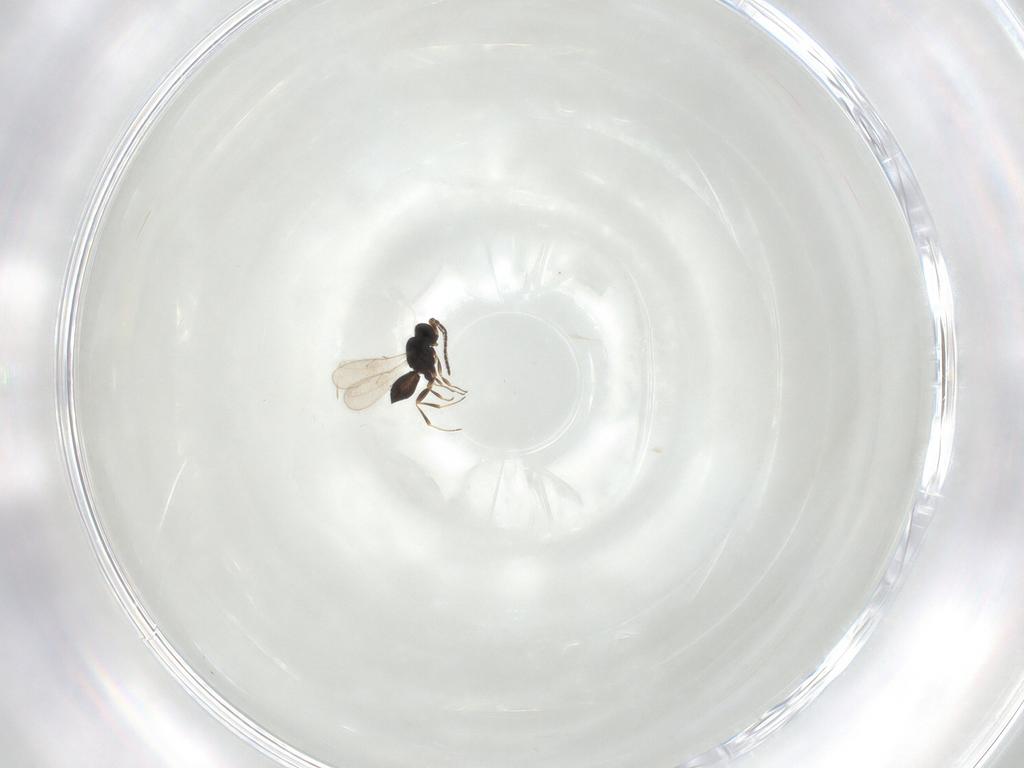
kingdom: Animalia
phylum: Arthropoda
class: Insecta
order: Hymenoptera
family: Scelionidae
